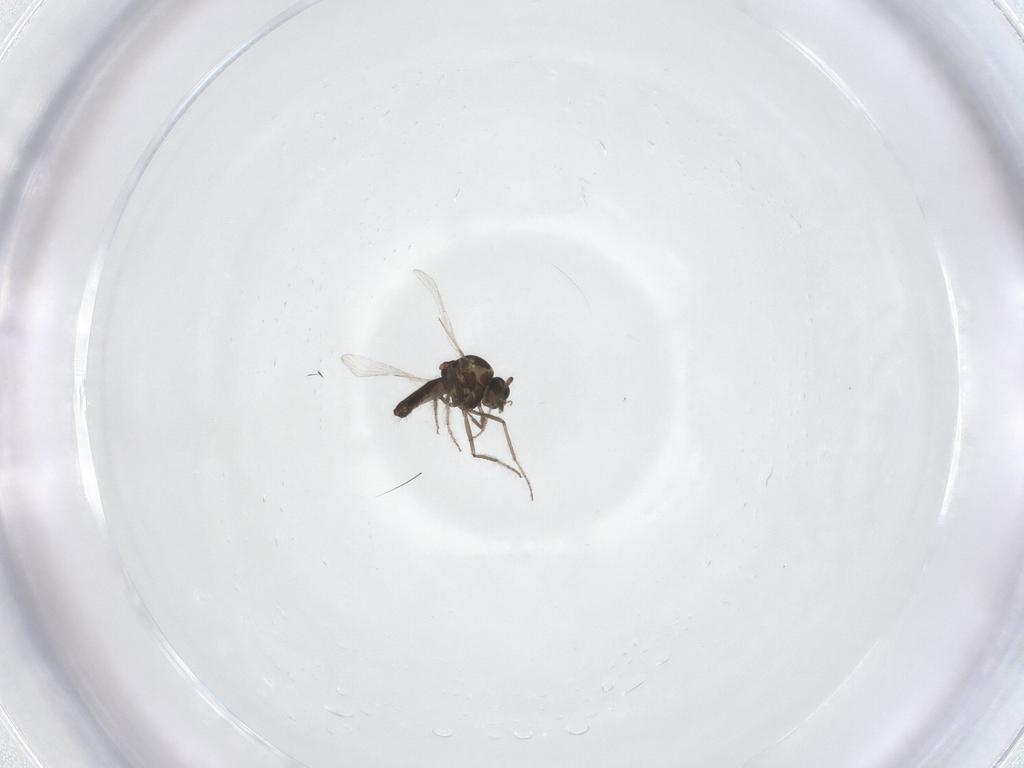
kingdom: Animalia
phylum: Arthropoda
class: Insecta
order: Diptera
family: Ceratopogonidae
